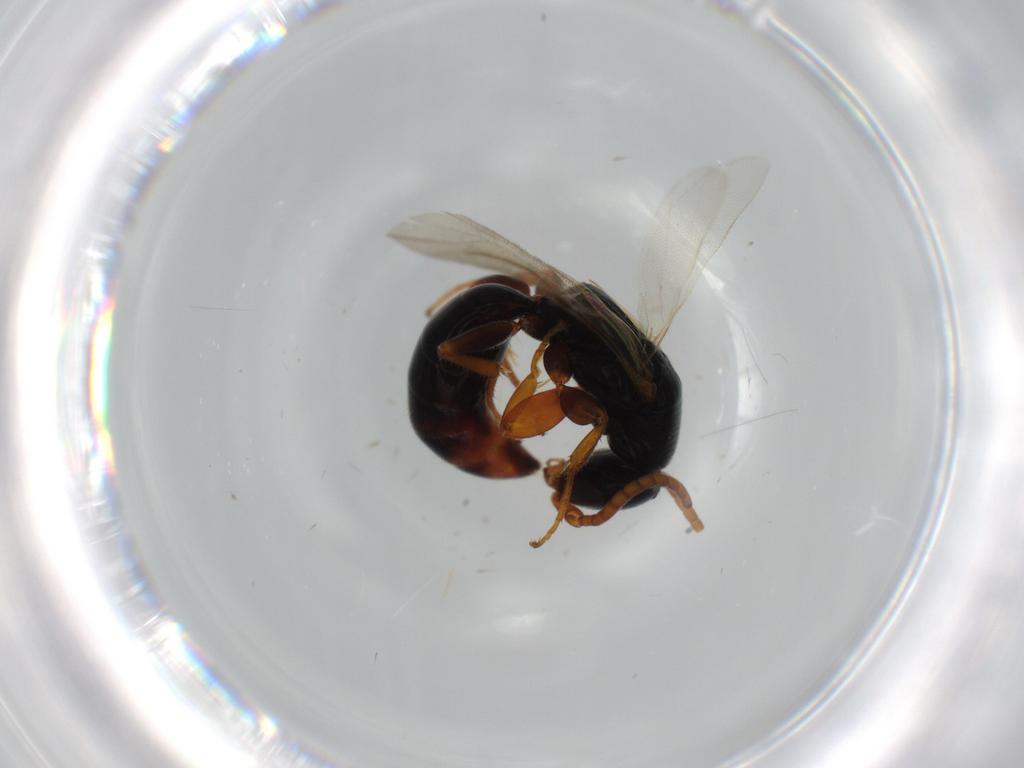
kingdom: Animalia
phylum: Arthropoda
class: Insecta
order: Hymenoptera
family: Bethylidae
